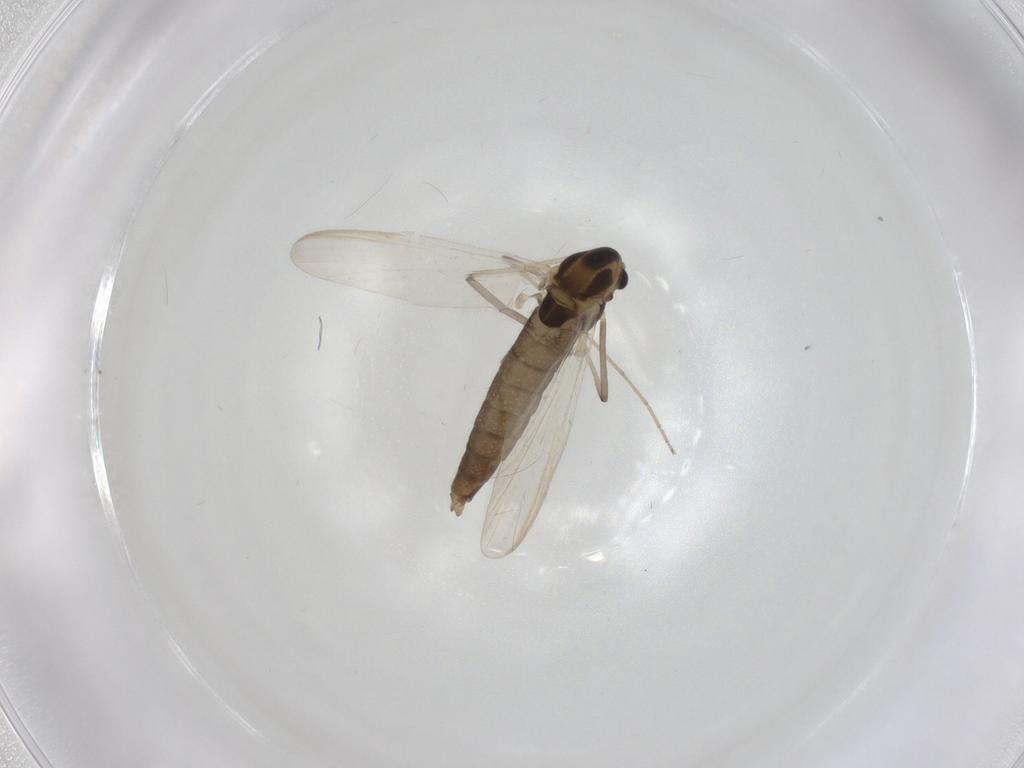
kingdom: Animalia
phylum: Arthropoda
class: Insecta
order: Diptera
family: Chironomidae
